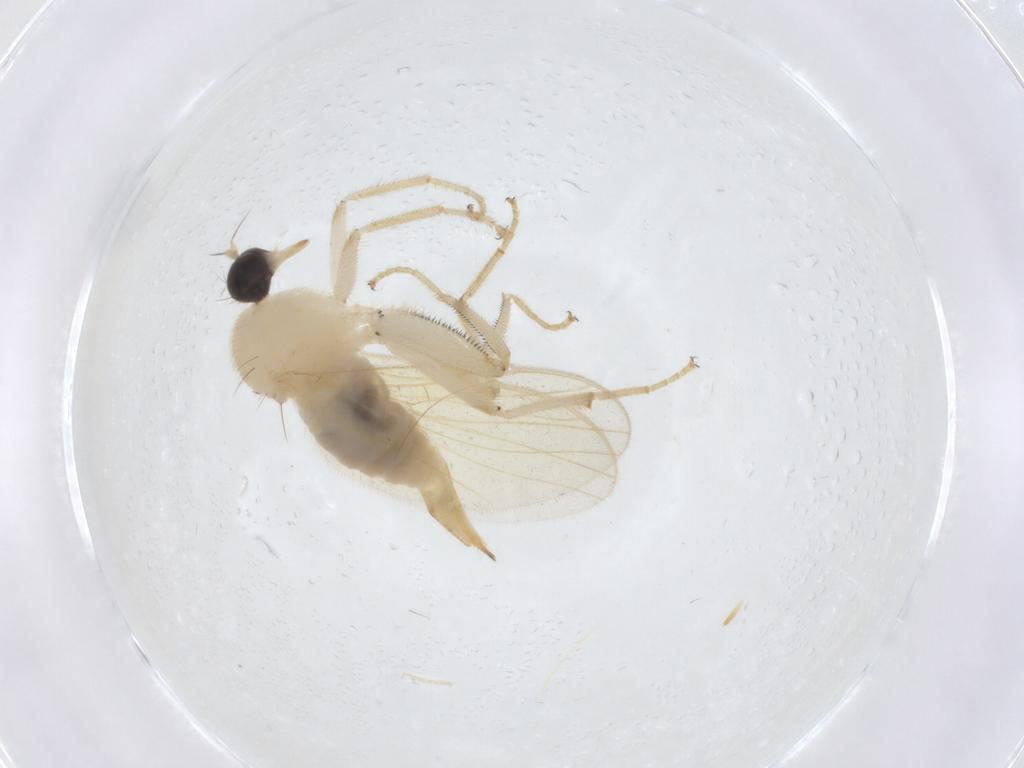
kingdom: Animalia
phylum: Arthropoda
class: Insecta
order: Diptera
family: Hybotidae
